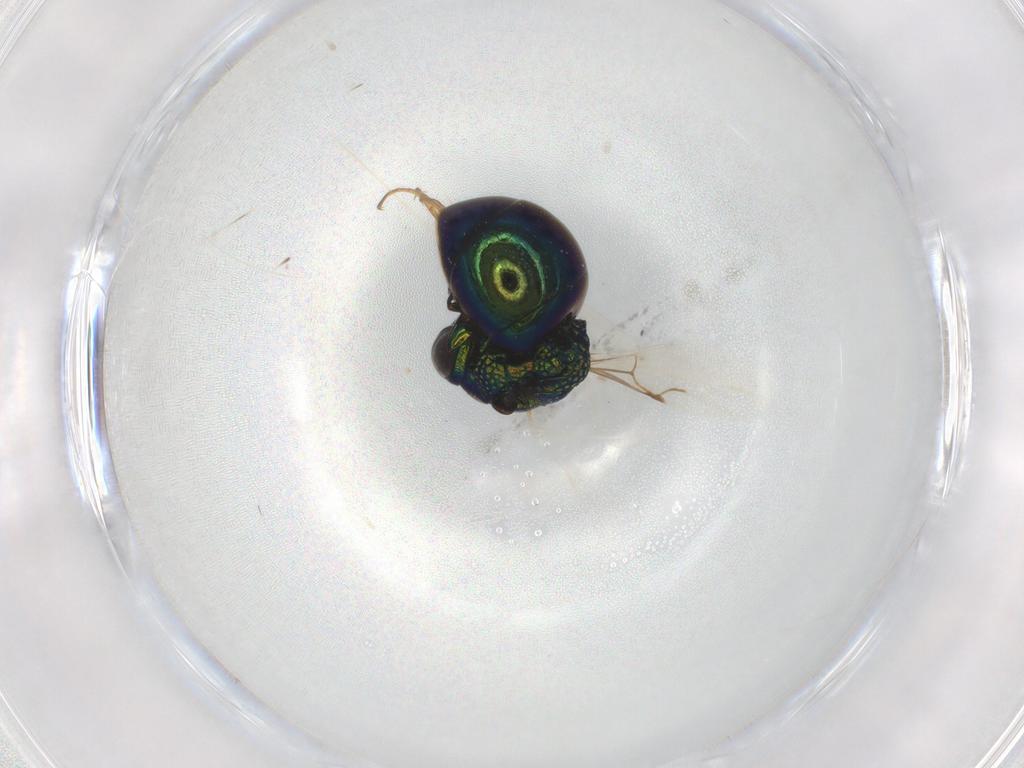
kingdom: Animalia
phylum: Arthropoda
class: Insecta
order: Hymenoptera
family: Chrysididae
